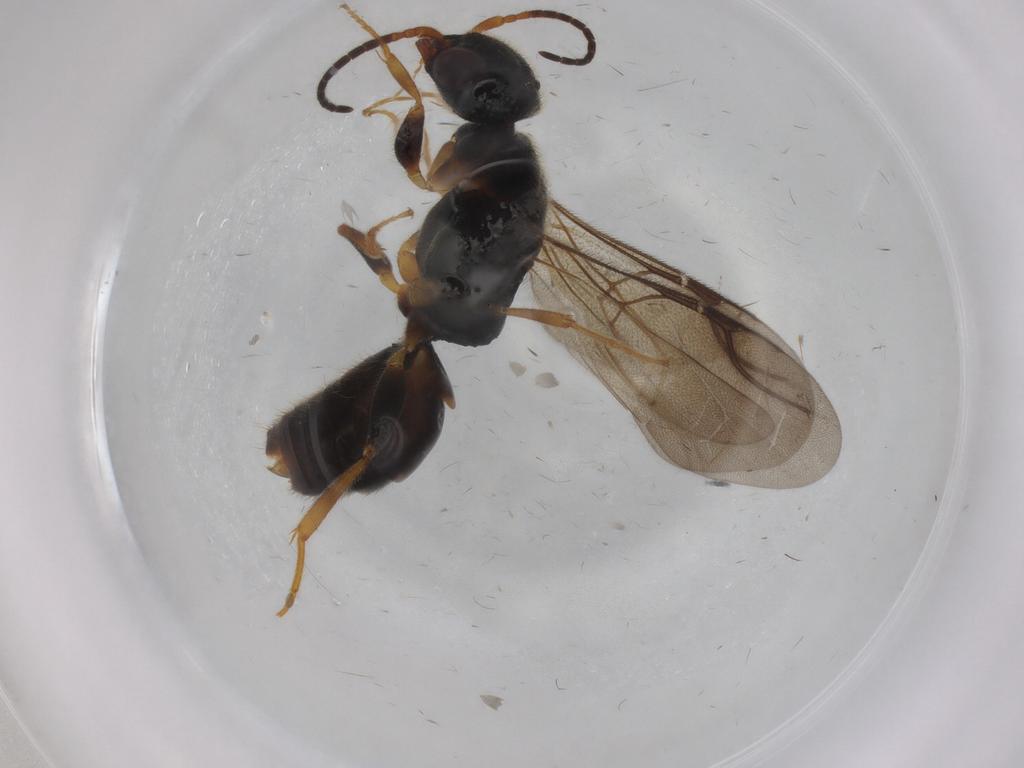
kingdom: Animalia
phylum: Arthropoda
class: Insecta
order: Hymenoptera
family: Bethylidae
